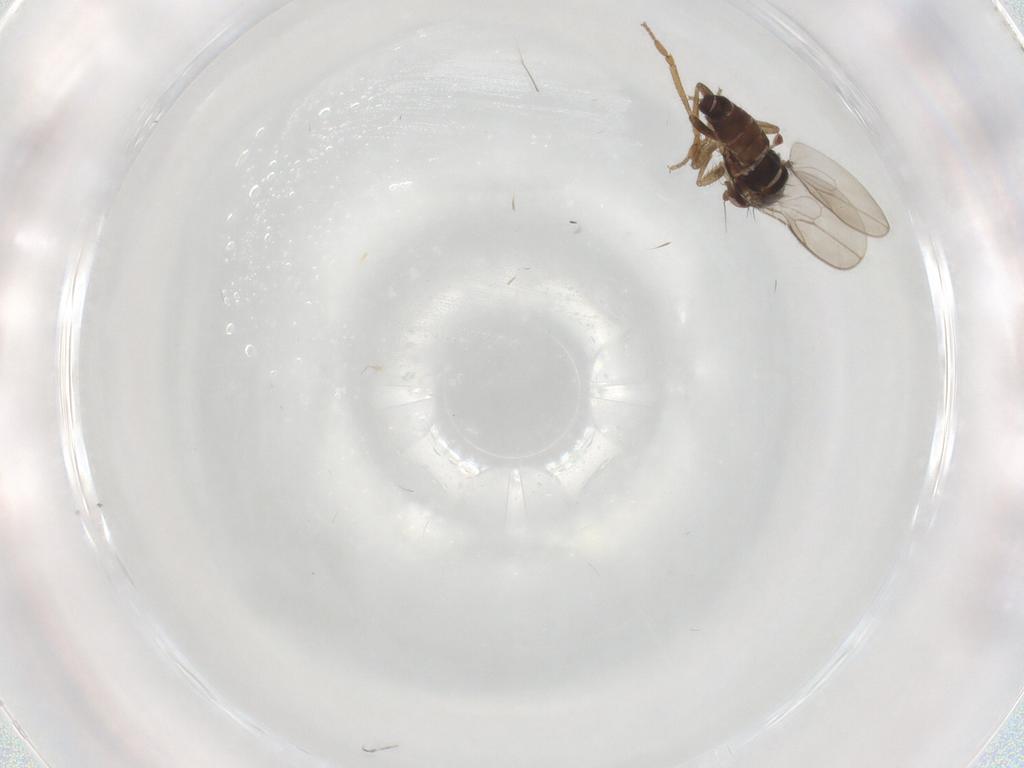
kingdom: Animalia
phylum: Arthropoda
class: Insecta
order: Diptera
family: Sphaeroceridae
